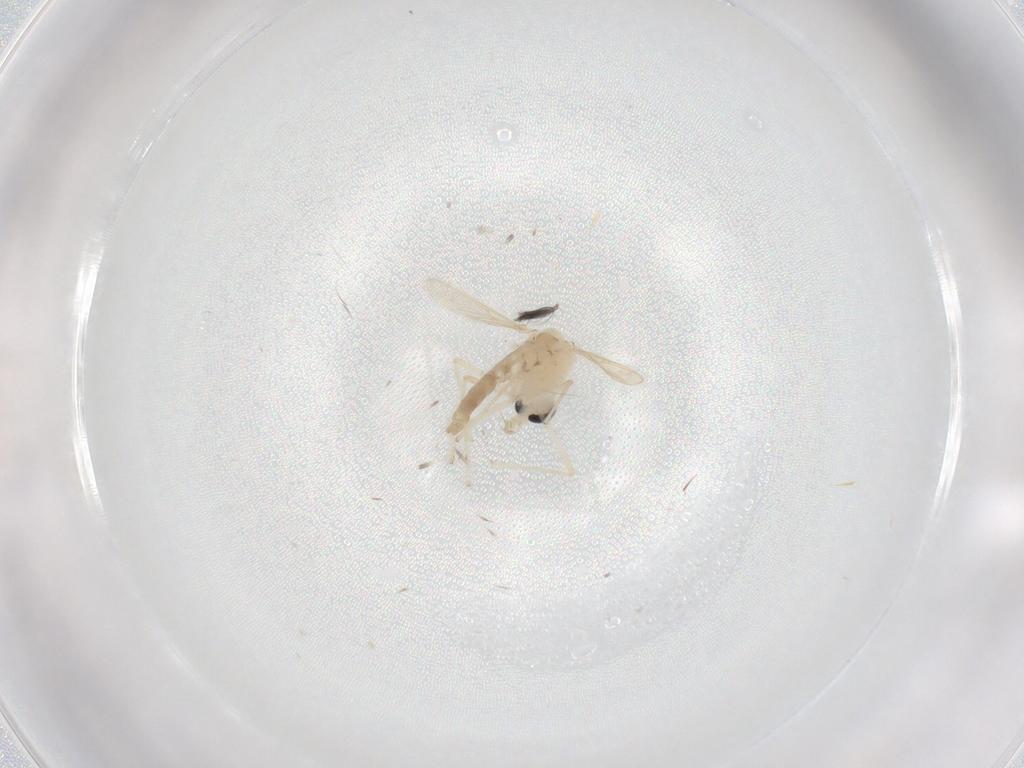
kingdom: Animalia
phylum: Arthropoda
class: Insecta
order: Diptera
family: Chironomidae
